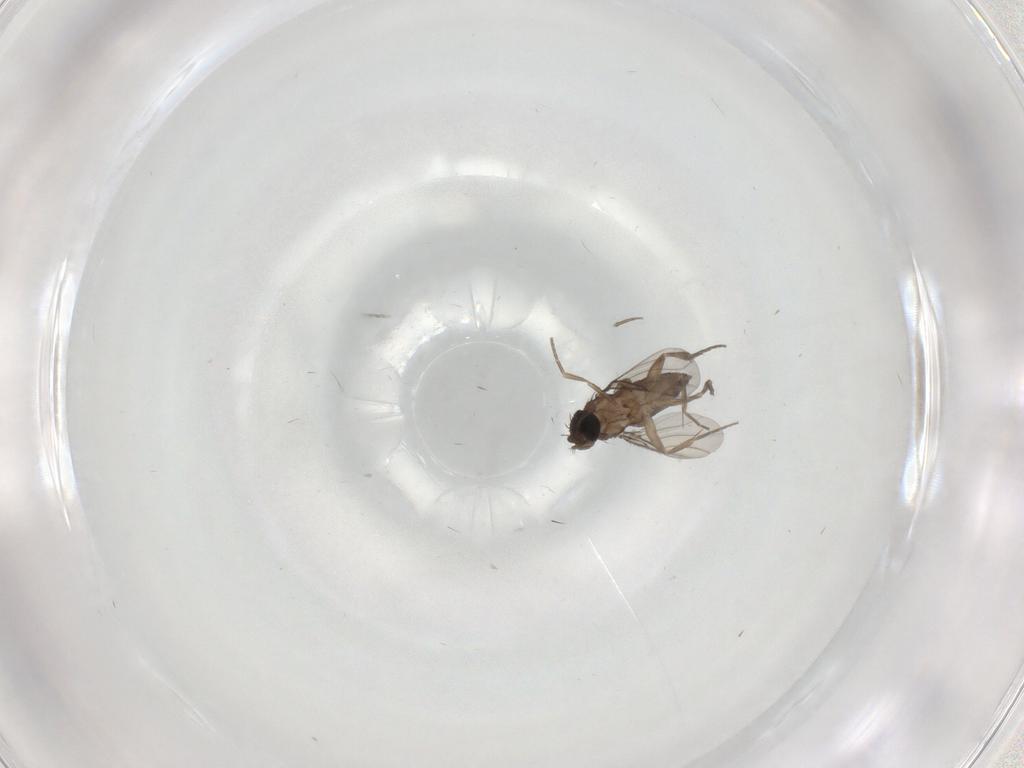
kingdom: Animalia
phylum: Arthropoda
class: Insecta
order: Diptera
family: Phoridae
